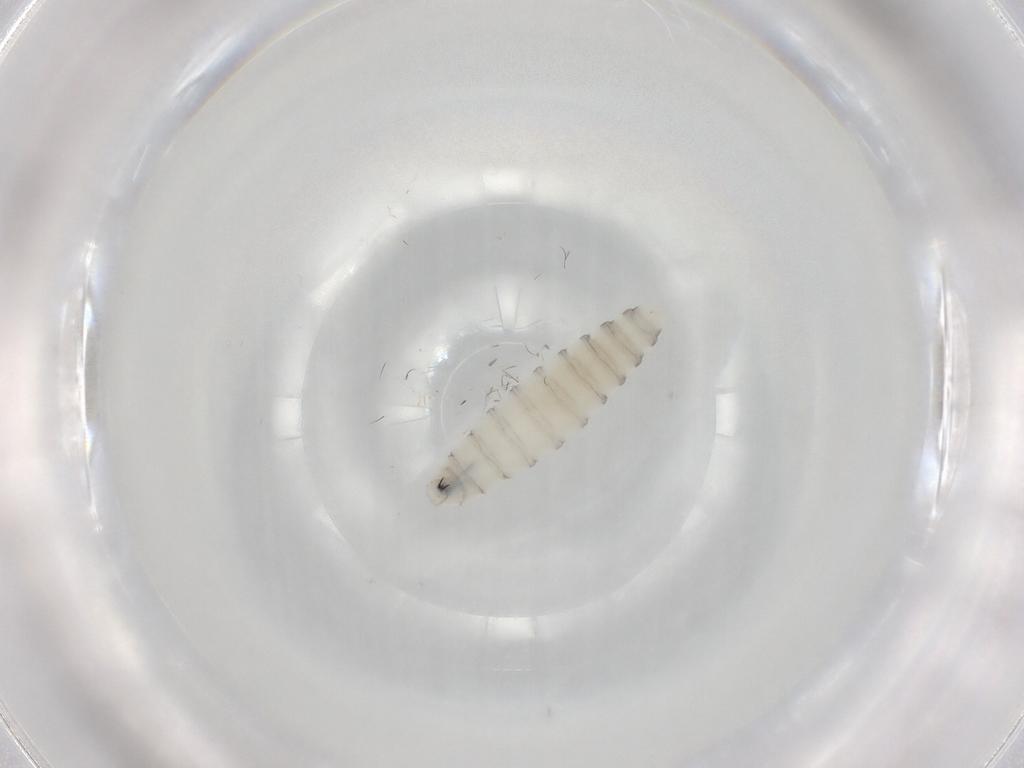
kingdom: Animalia
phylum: Arthropoda
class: Insecta
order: Diptera
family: Sarcophagidae
